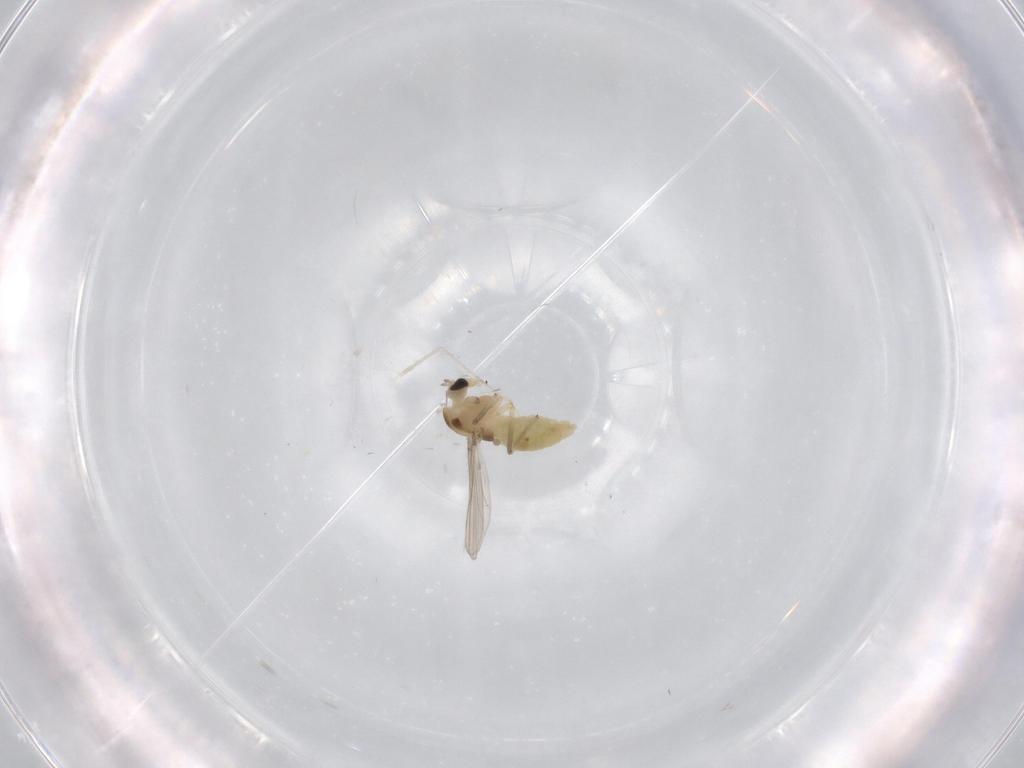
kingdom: Animalia
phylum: Arthropoda
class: Insecta
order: Diptera
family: Chironomidae
